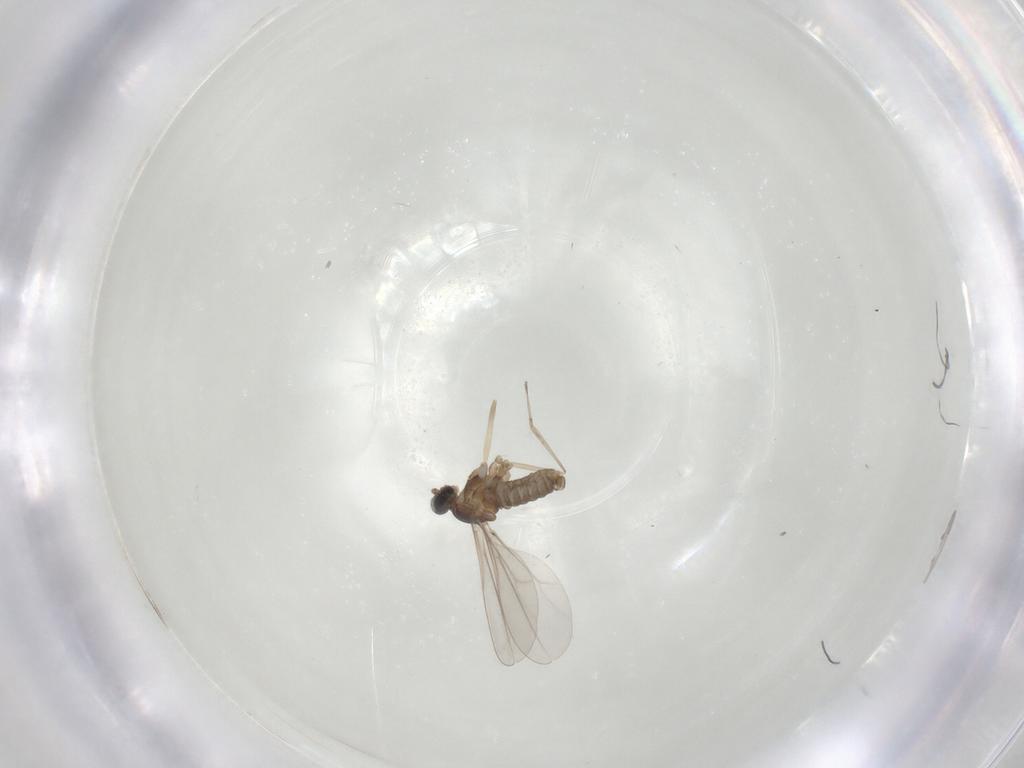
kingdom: Animalia
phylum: Arthropoda
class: Insecta
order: Diptera
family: Cecidomyiidae
